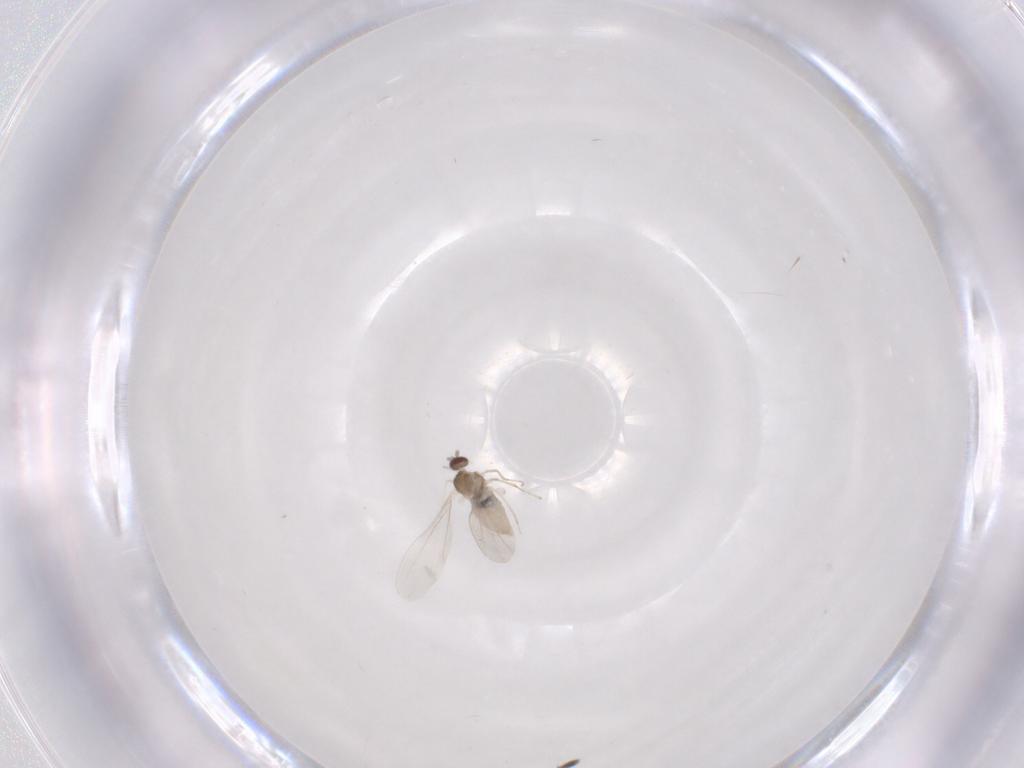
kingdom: Animalia
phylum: Arthropoda
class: Insecta
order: Diptera
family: Cecidomyiidae
